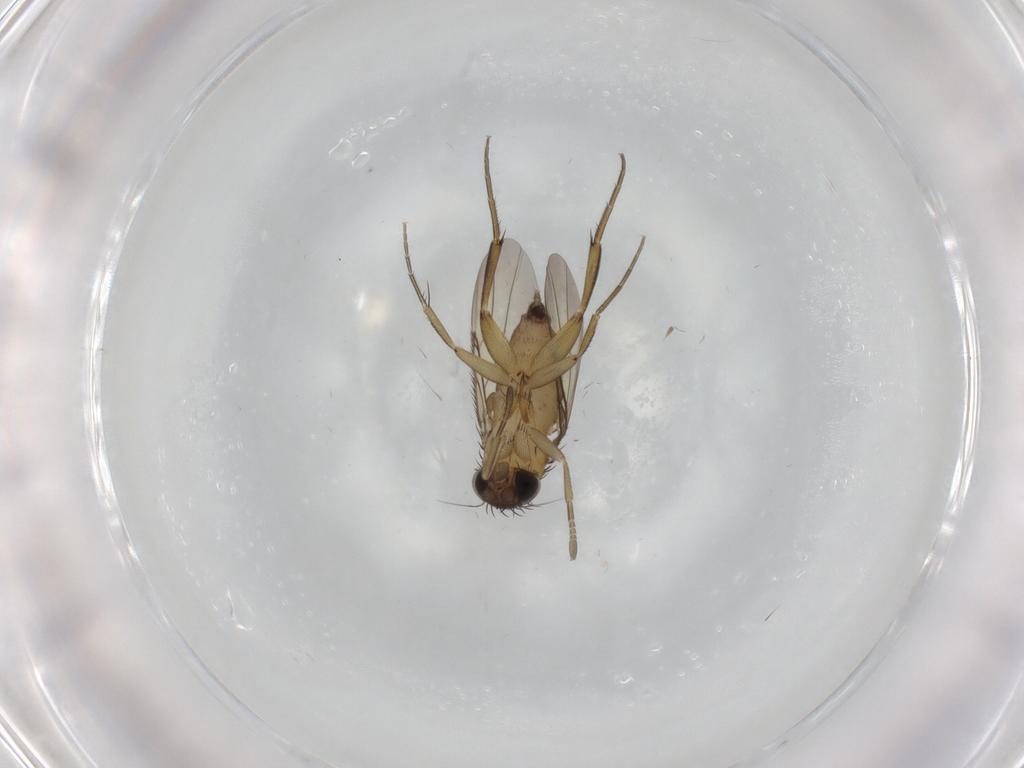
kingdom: Animalia
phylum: Arthropoda
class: Insecta
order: Diptera
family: Phoridae
